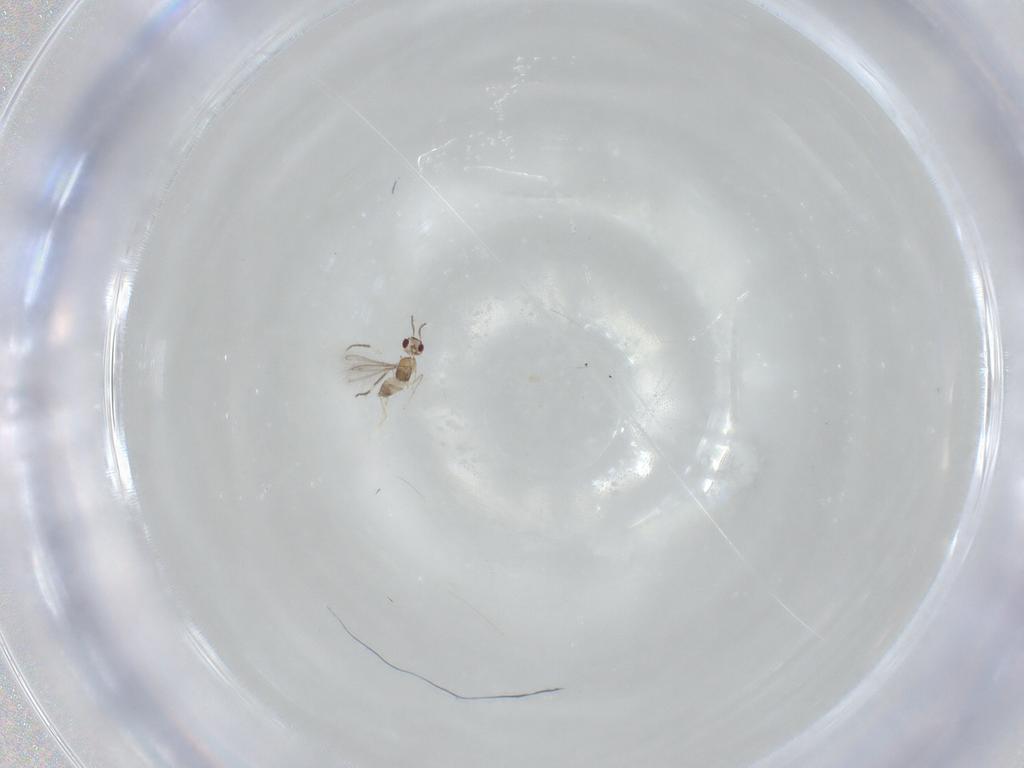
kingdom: Animalia
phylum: Arthropoda
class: Insecta
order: Hymenoptera
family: Mymaridae
